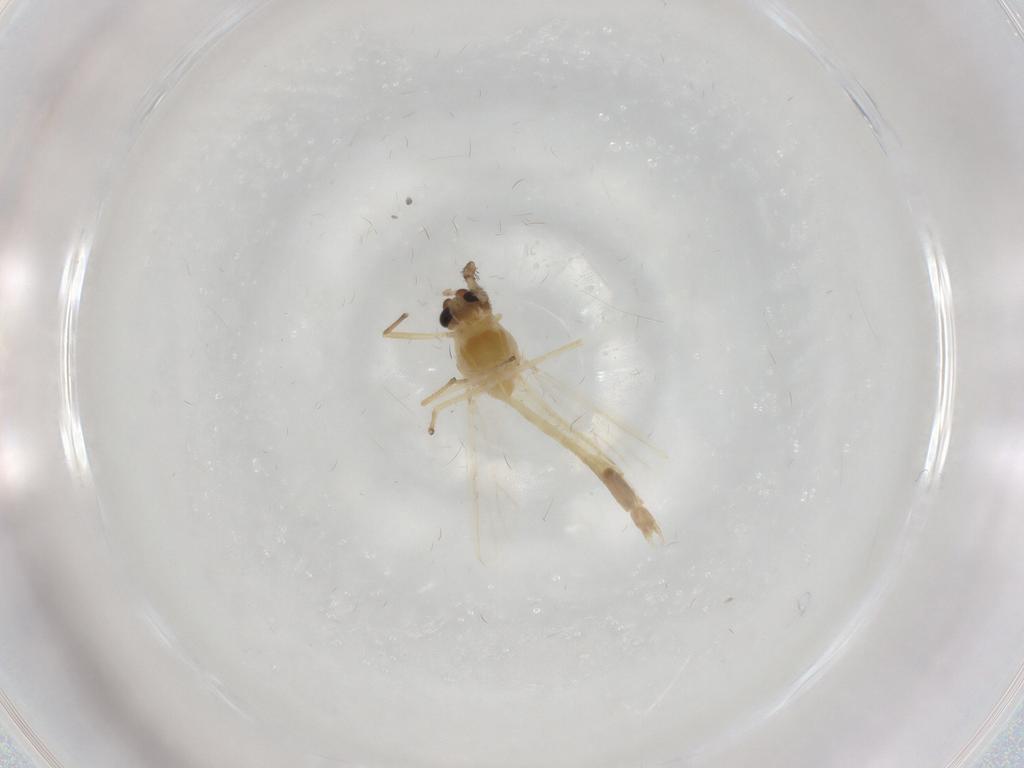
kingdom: Animalia
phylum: Arthropoda
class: Insecta
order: Diptera
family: Chironomidae
